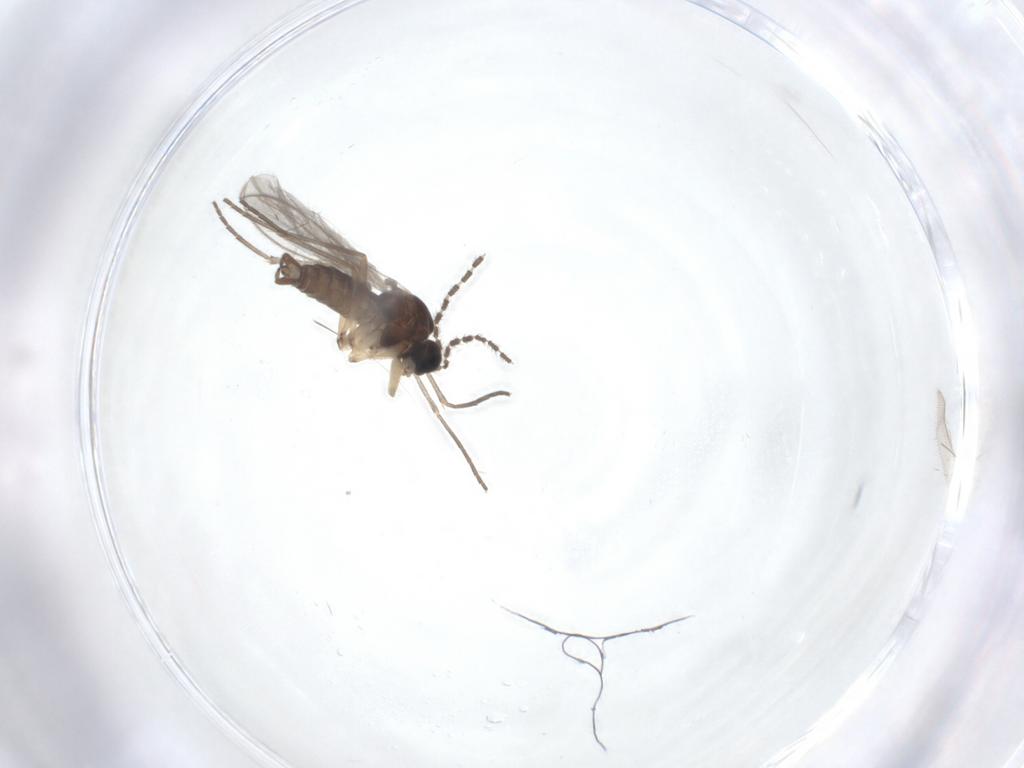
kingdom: Animalia
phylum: Arthropoda
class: Insecta
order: Diptera
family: Sciaridae
